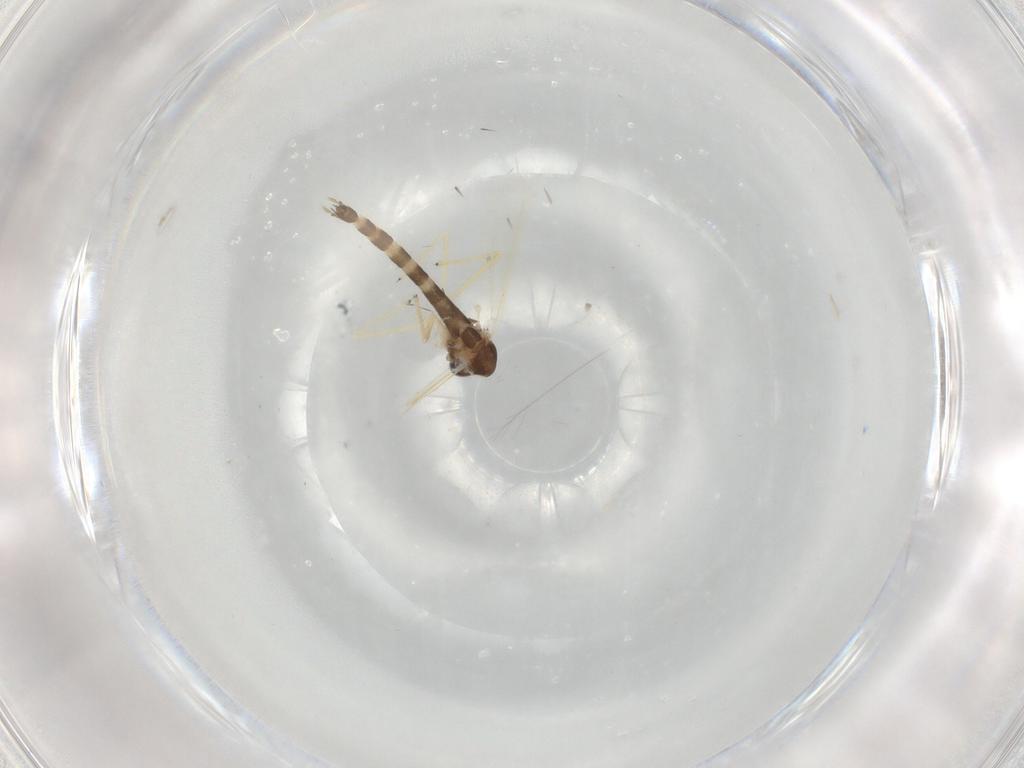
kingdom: Animalia
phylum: Arthropoda
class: Insecta
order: Diptera
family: Chironomidae
